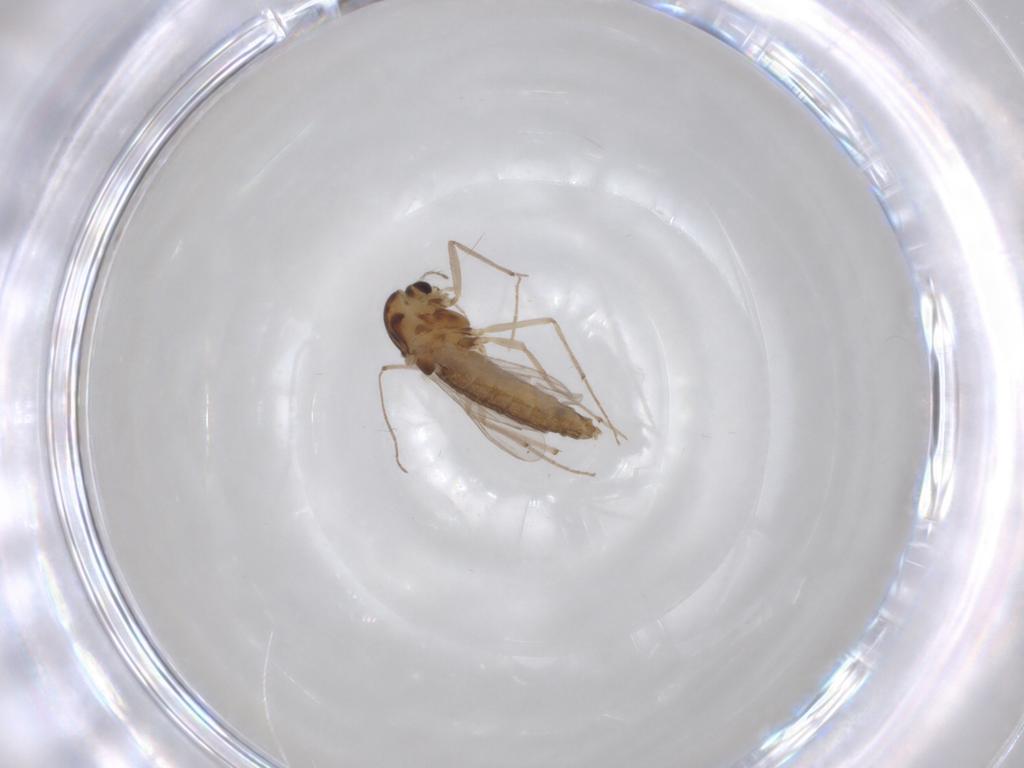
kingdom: Animalia
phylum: Arthropoda
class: Insecta
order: Diptera
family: Chironomidae
